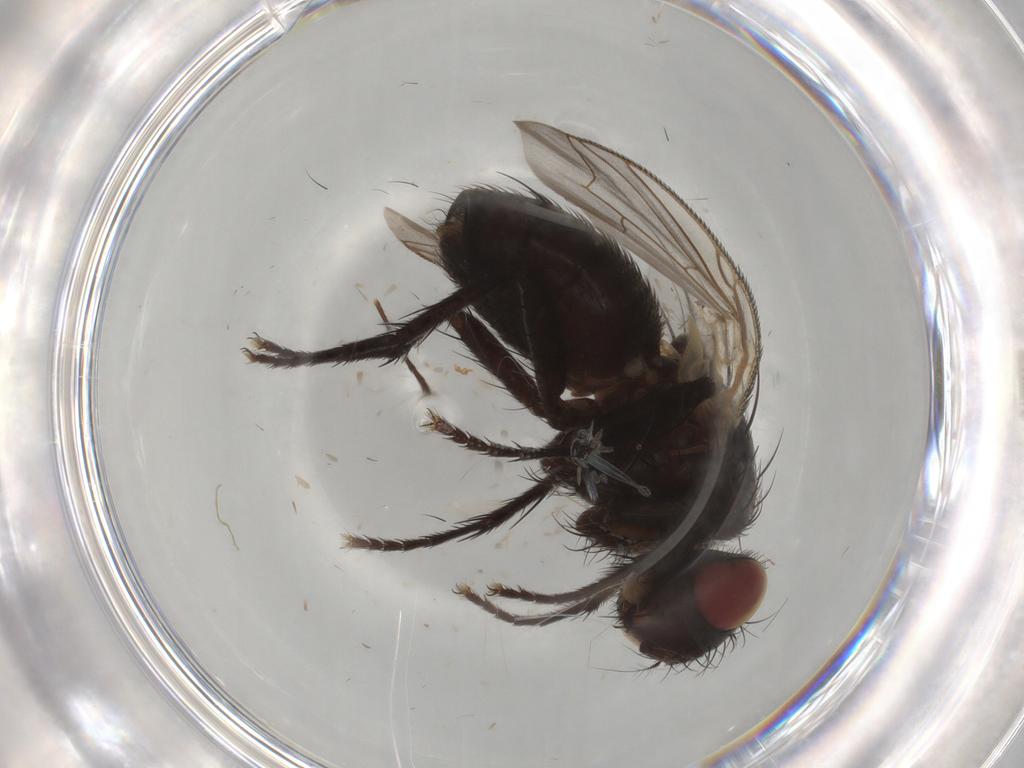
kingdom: Animalia
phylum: Arthropoda
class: Insecta
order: Diptera
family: Sarcophagidae
